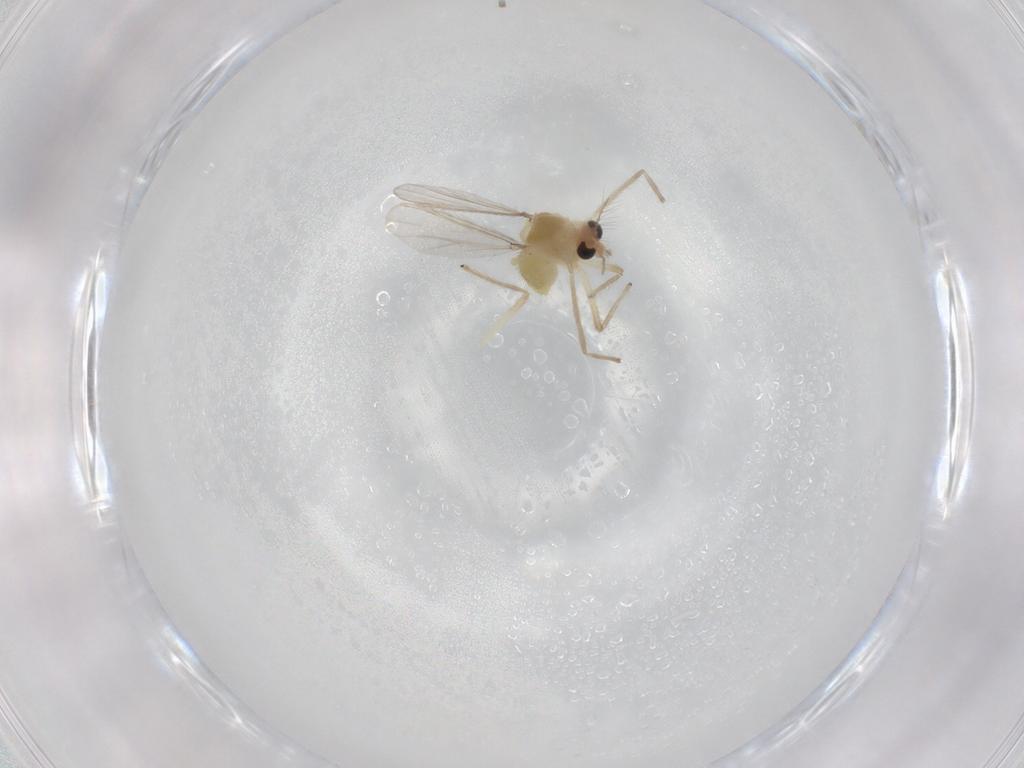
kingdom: Animalia
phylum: Arthropoda
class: Insecta
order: Diptera
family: Chironomidae
